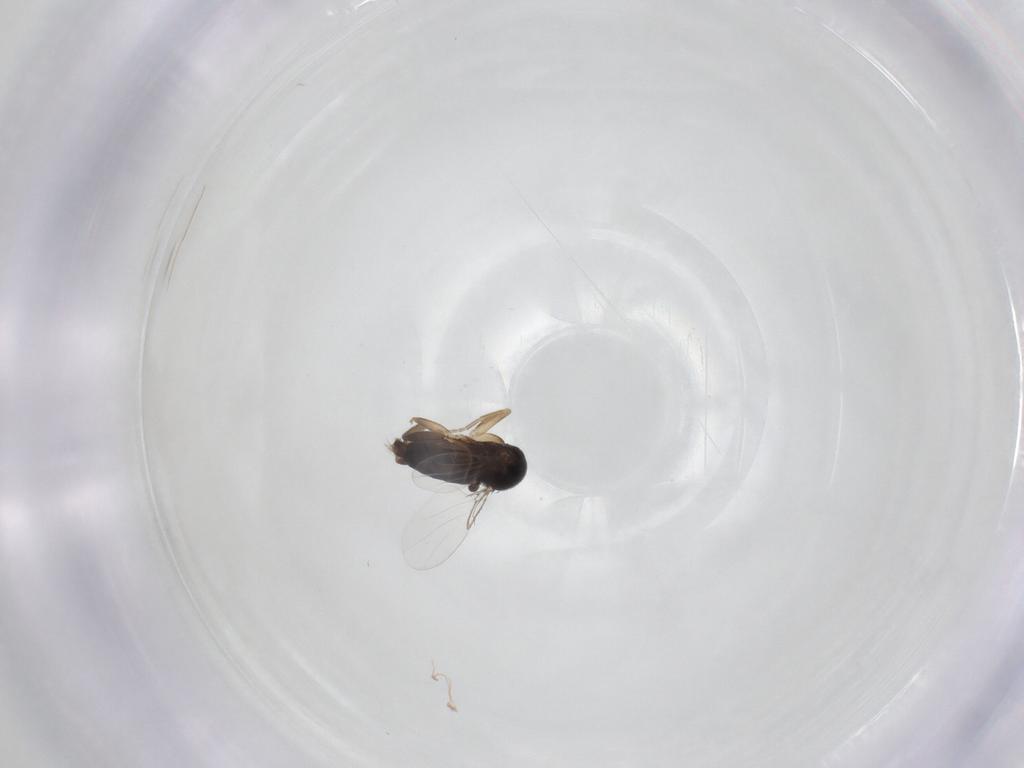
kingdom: Animalia
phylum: Arthropoda
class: Insecta
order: Diptera
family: Phoridae
